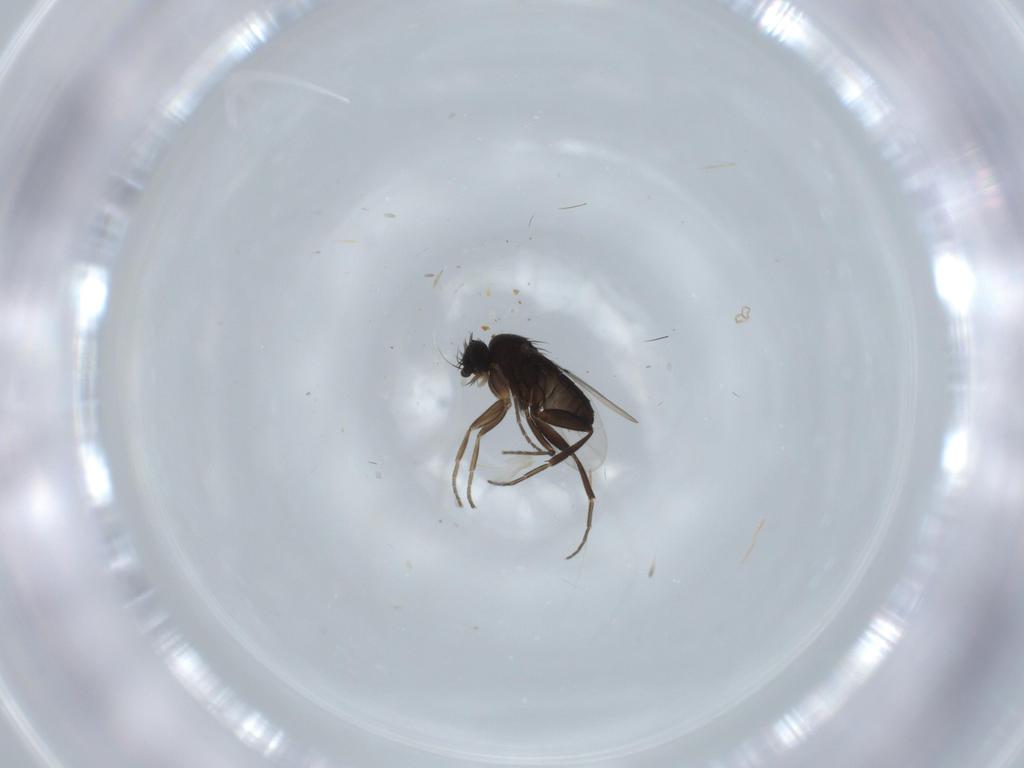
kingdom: Animalia
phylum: Arthropoda
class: Insecta
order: Diptera
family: Phoridae
